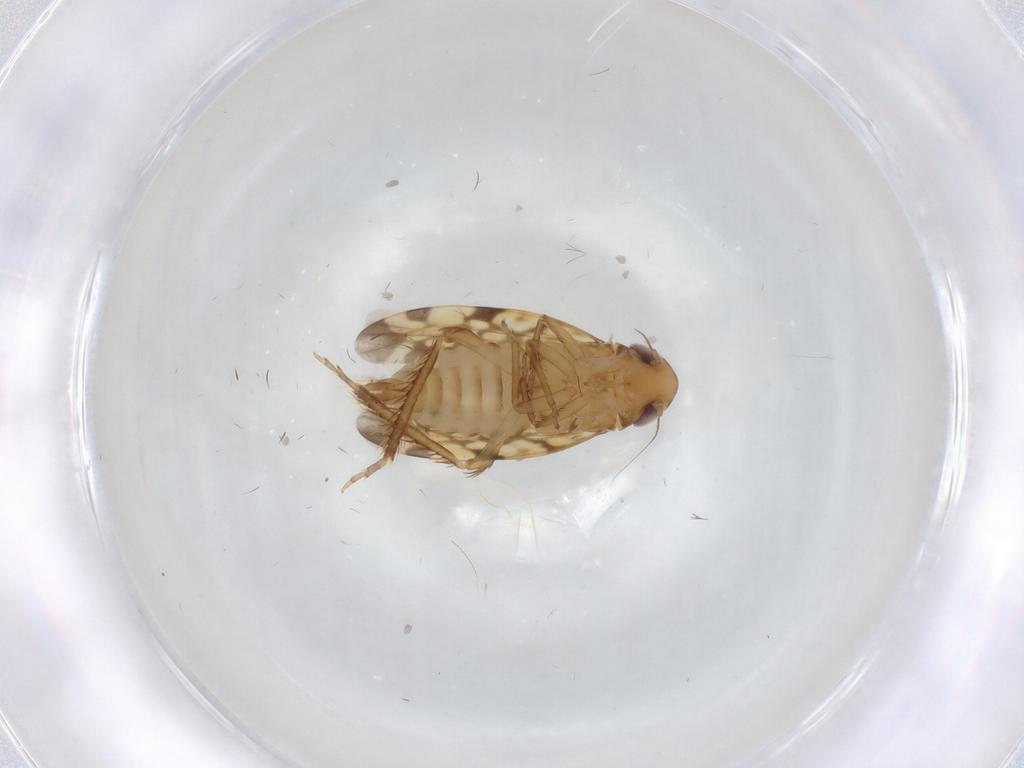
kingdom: Animalia
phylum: Arthropoda
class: Insecta
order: Hemiptera
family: Cicadellidae
